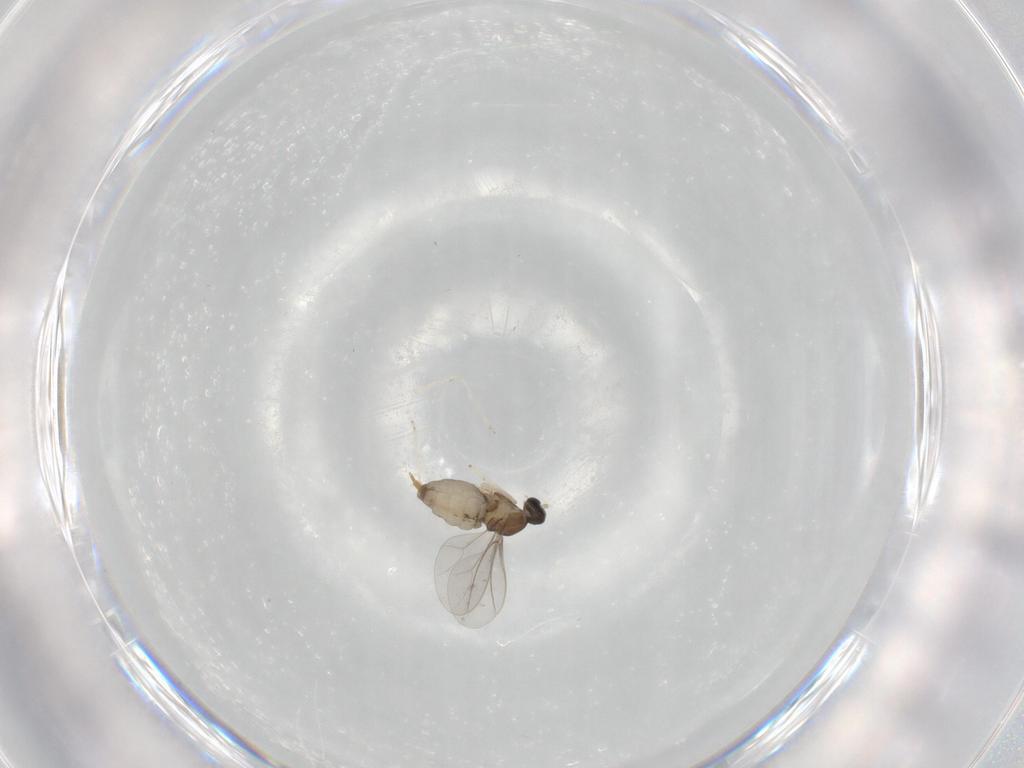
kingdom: Animalia
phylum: Arthropoda
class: Insecta
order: Diptera
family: Cecidomyiidae
